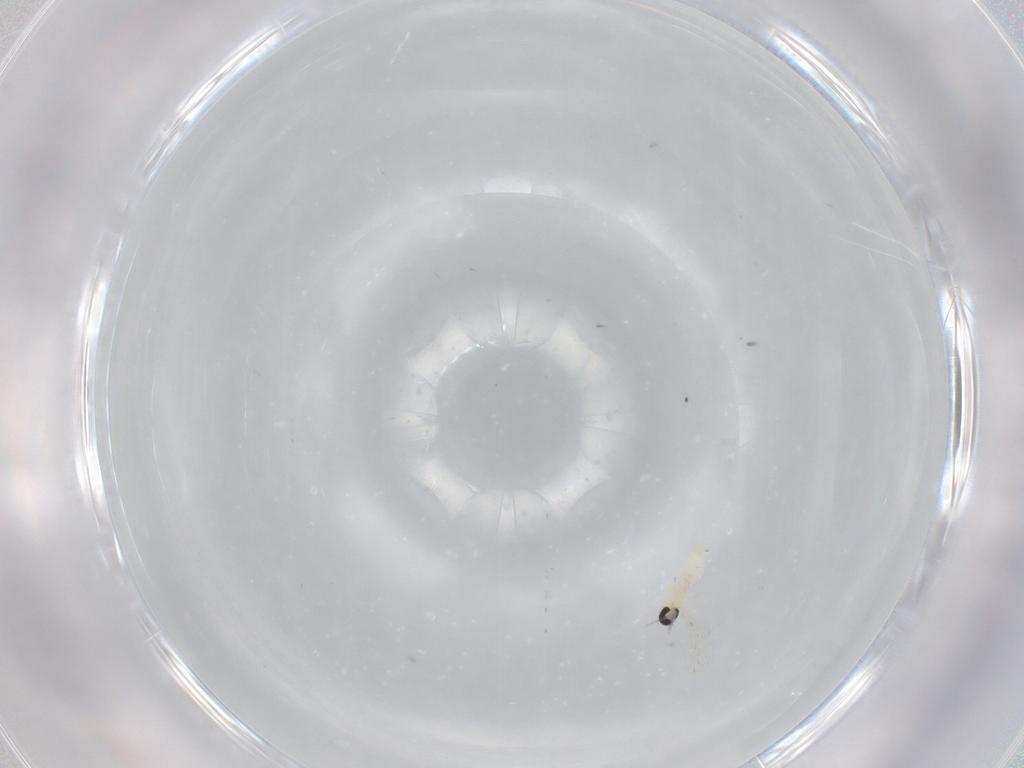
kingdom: Animalia
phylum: Arthropoda
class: Insecta
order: Diptera
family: Cecidomyiidae
